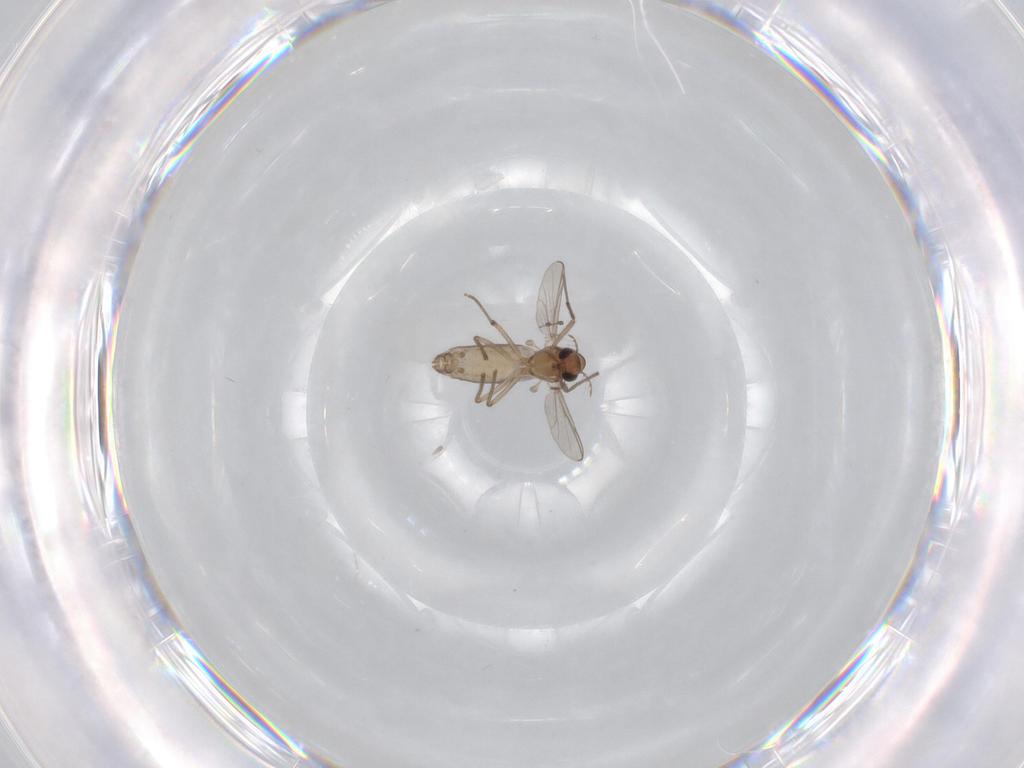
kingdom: Animalia
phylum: Arthropoda
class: Insecta
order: Diptera
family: Chironomidae
